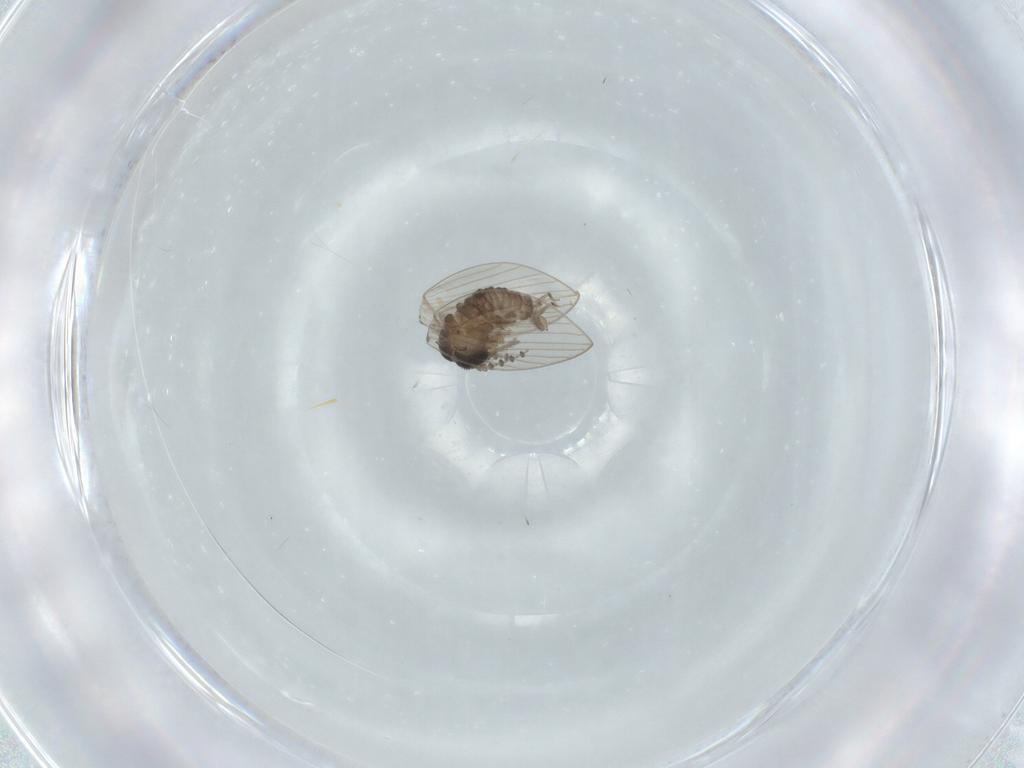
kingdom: Animalia
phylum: Arthropoda
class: Insecta
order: Diptera
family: Psychodidae
